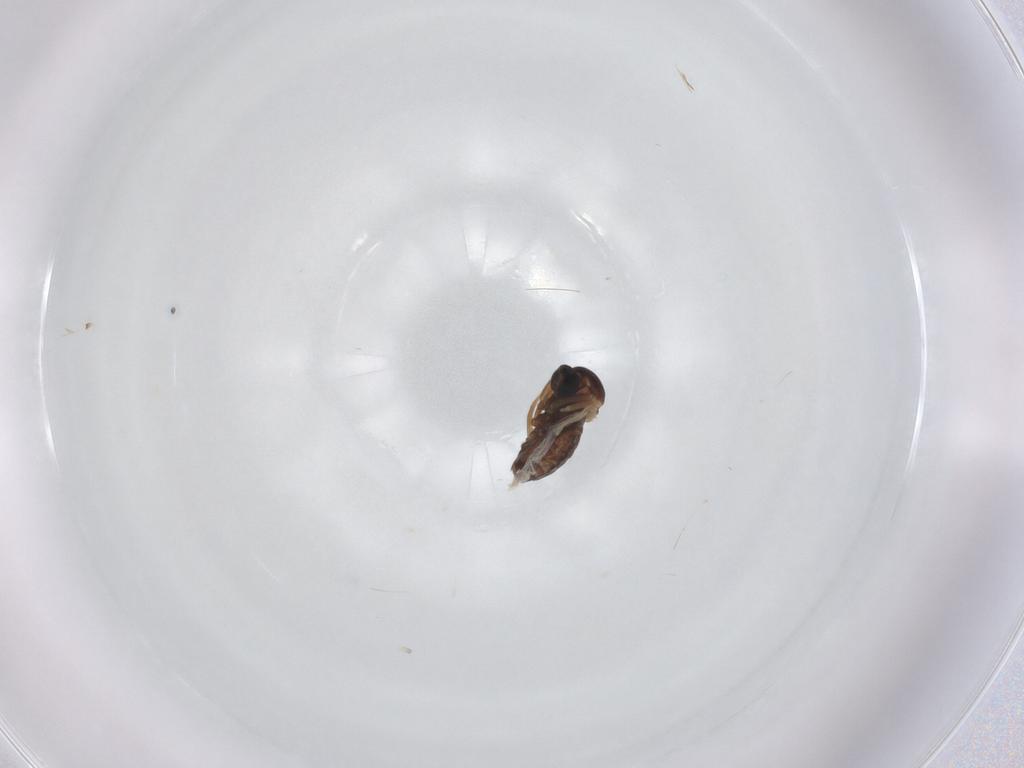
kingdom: Animalia
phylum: Arthropoda
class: Insecta
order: Diptera
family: Cecidomyiidae
